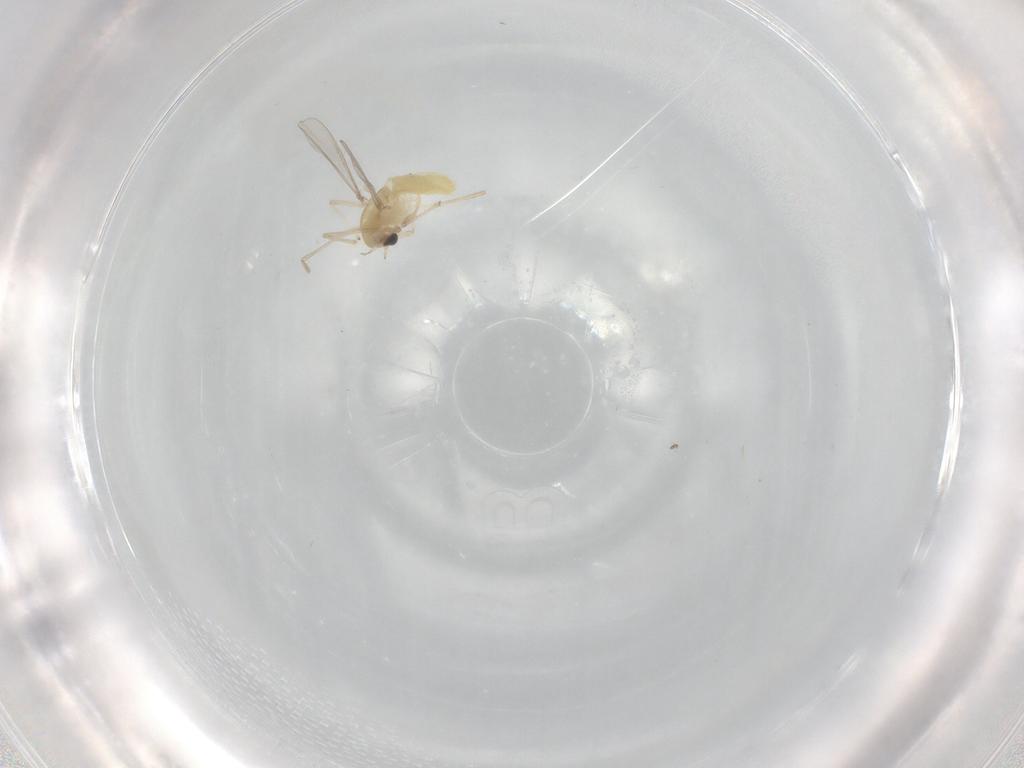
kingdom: Animalia
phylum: Arthropoda
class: Insecta
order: Diptera
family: Chironomidae
